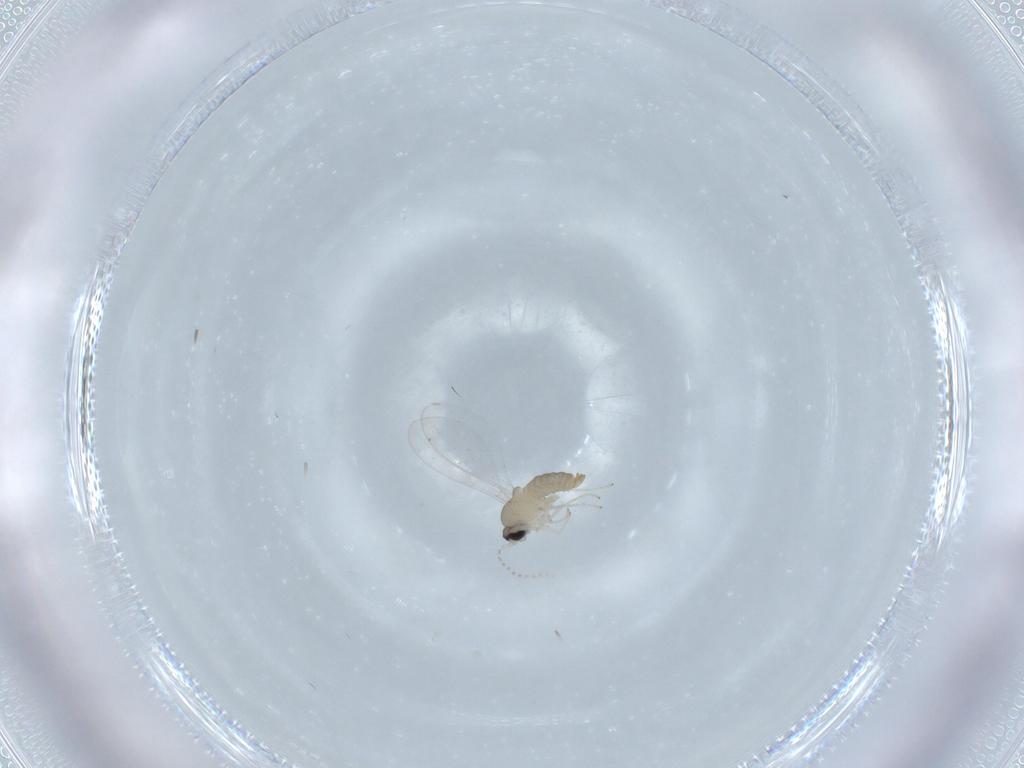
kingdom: Animalia
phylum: Arthropoda
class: Insecta
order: Diptera
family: Cecidomyiidae
